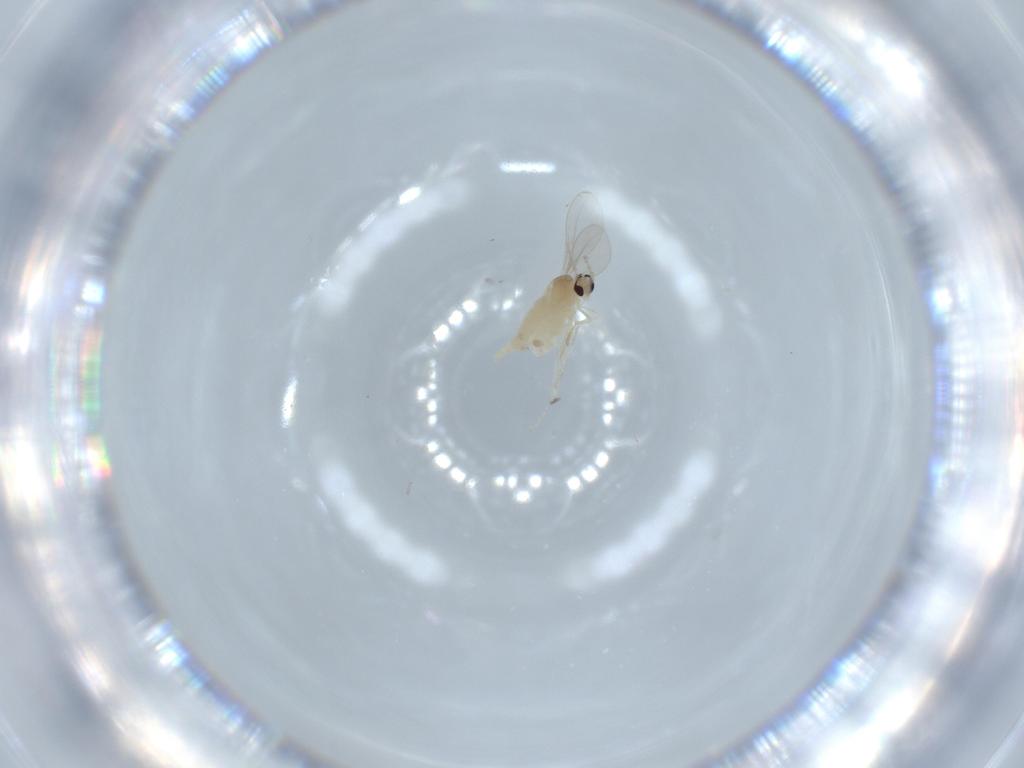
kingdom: Animalia
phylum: Arthropoda
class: Insecta
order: Diptera
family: Cecidomyiidae
